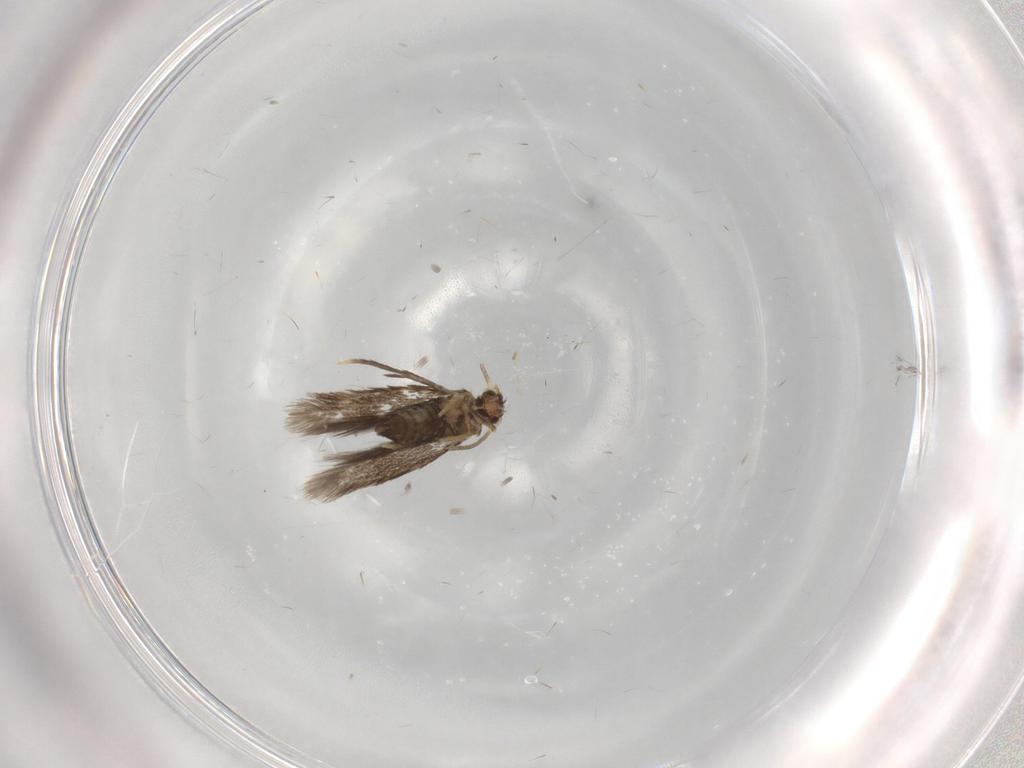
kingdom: Animalia
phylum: Arthropoda
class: Insecta
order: Lepidoptera
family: Nepticulidae
